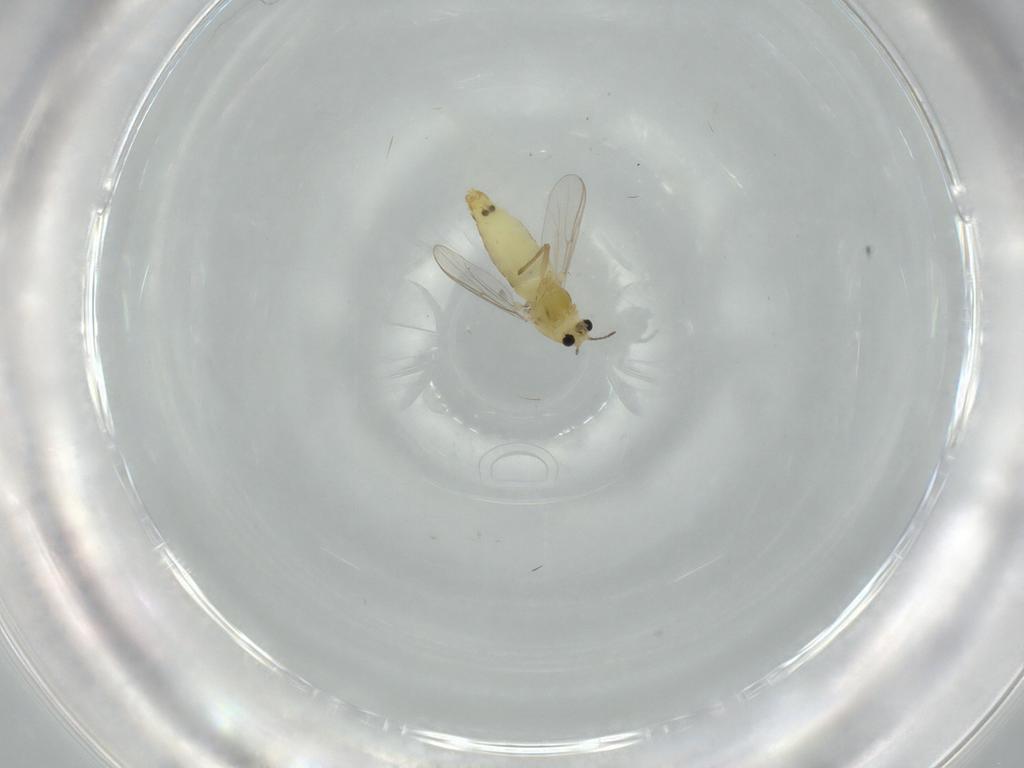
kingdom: Animalia
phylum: Arthropoda
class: Insecta
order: Diptera
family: Chironomidae
